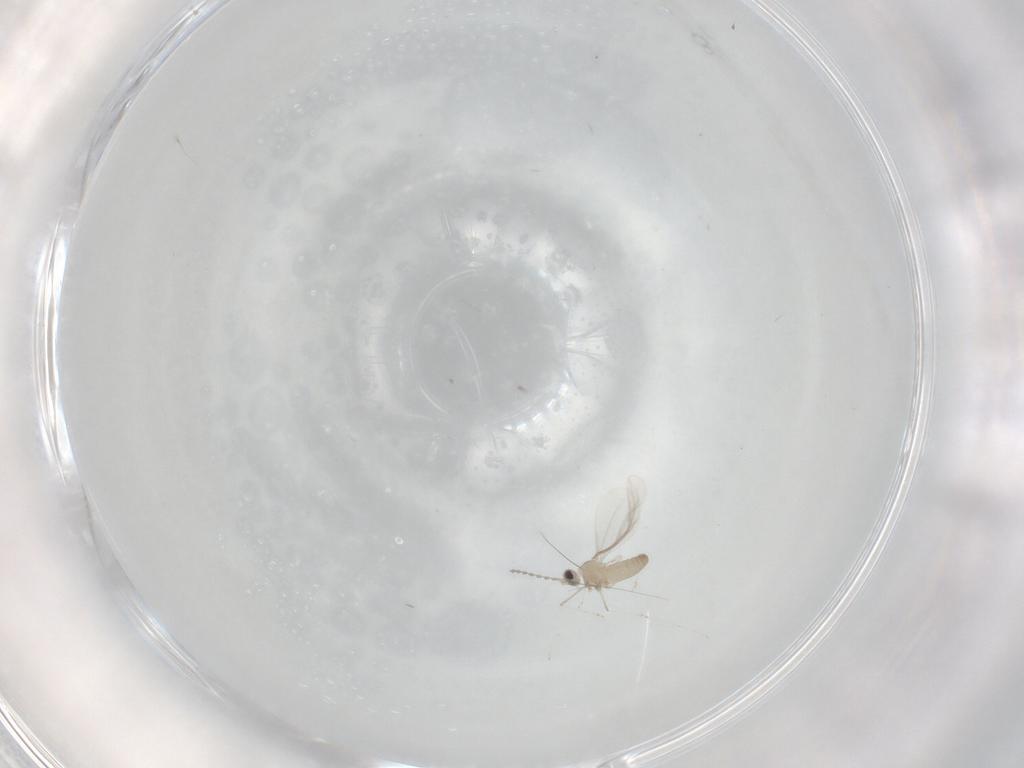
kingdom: Animalia
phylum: Arthropoda
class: Insecta
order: Diptera
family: Cecidomyiidae
